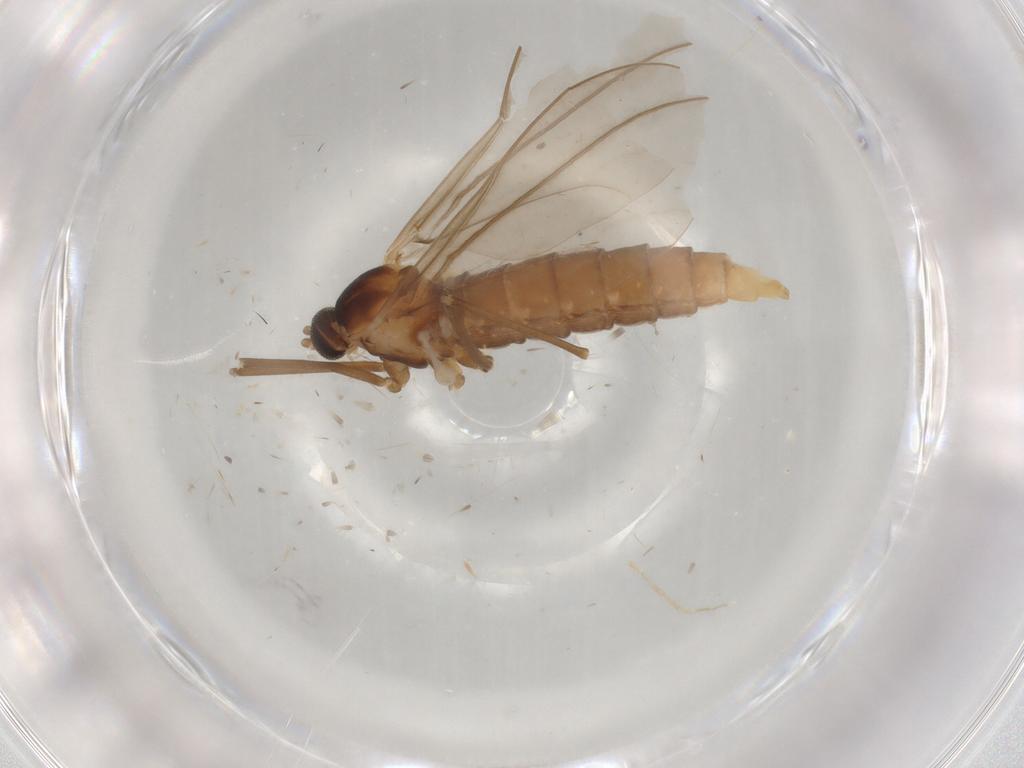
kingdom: Animalia
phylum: Arthropoda
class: Insecta
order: Diptera
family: Cecidomyiidae
